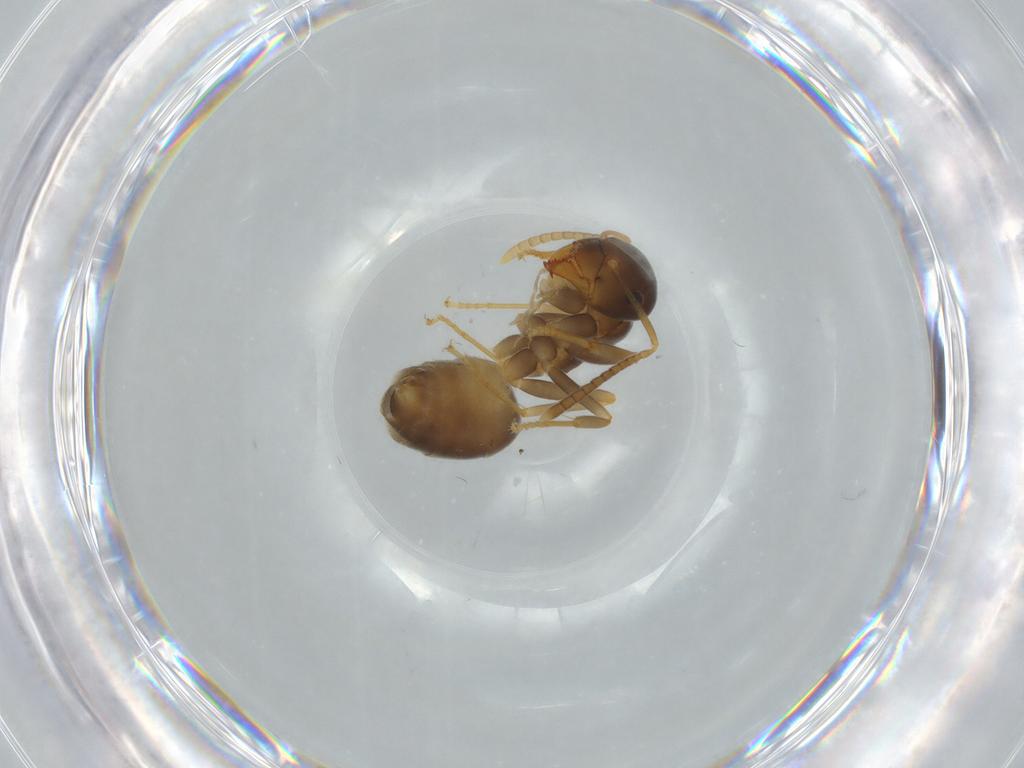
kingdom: Animalia
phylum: Arthropoda
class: Insecta
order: Hymenoptera
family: Formicidae
